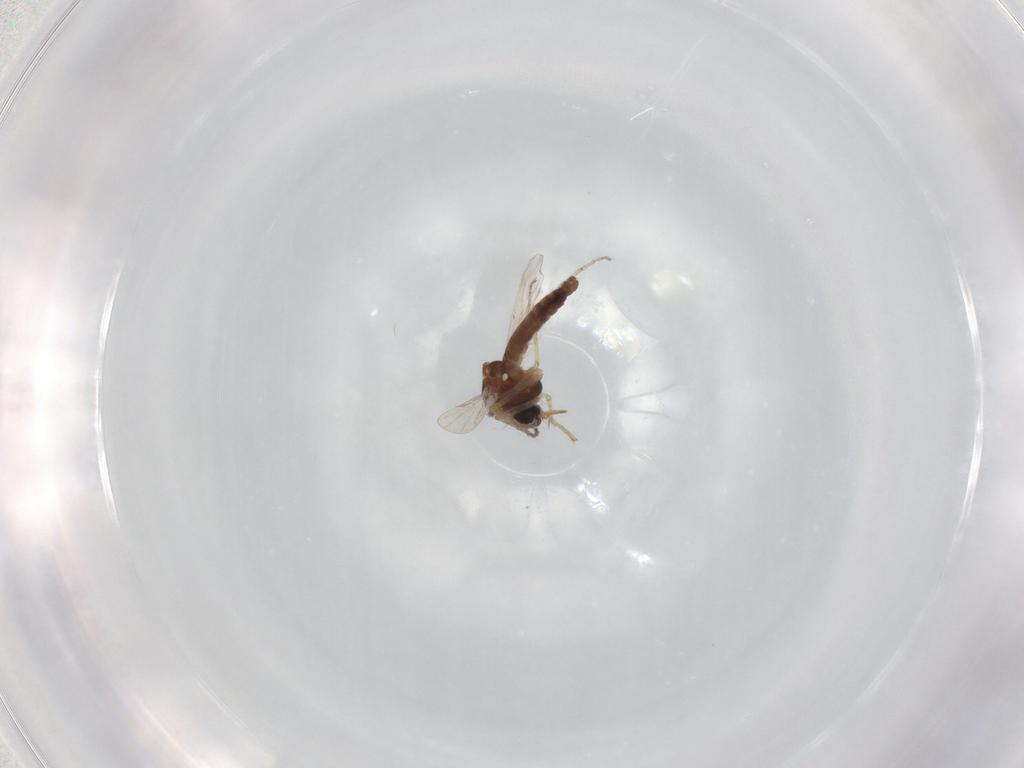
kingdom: Animalia
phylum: Arthropoda
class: Insecta
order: Diptera
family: Ceratopogonidae
